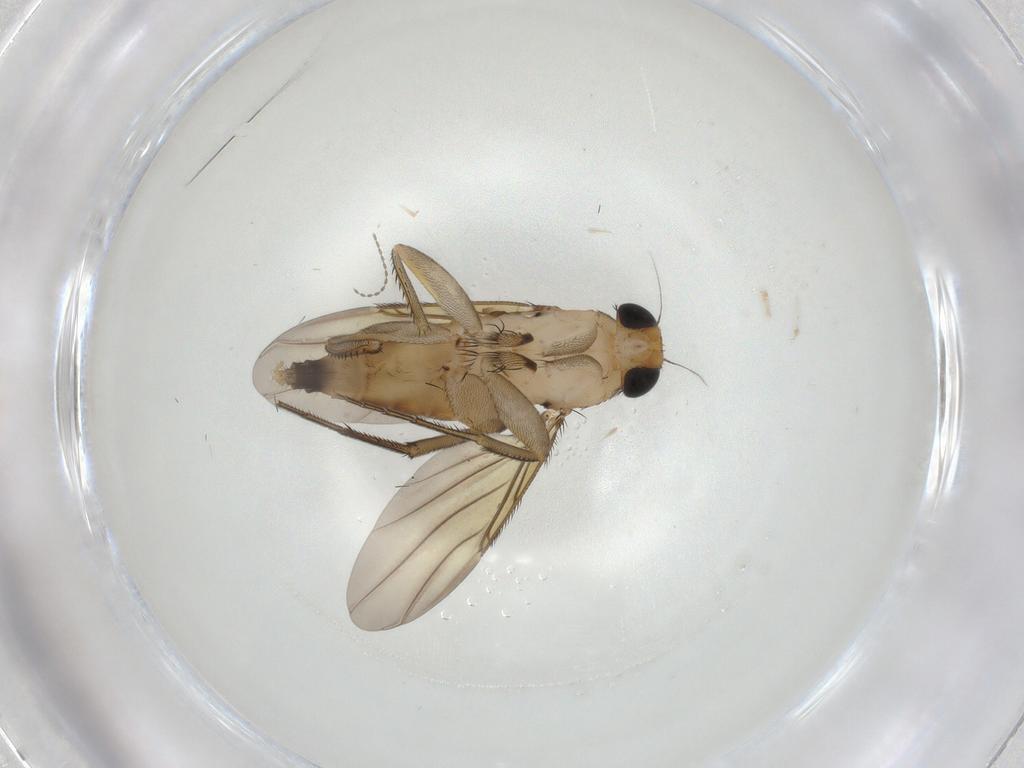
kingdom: Animalia
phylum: Arthropoda
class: Insecta
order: Diptera
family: Phoridae
